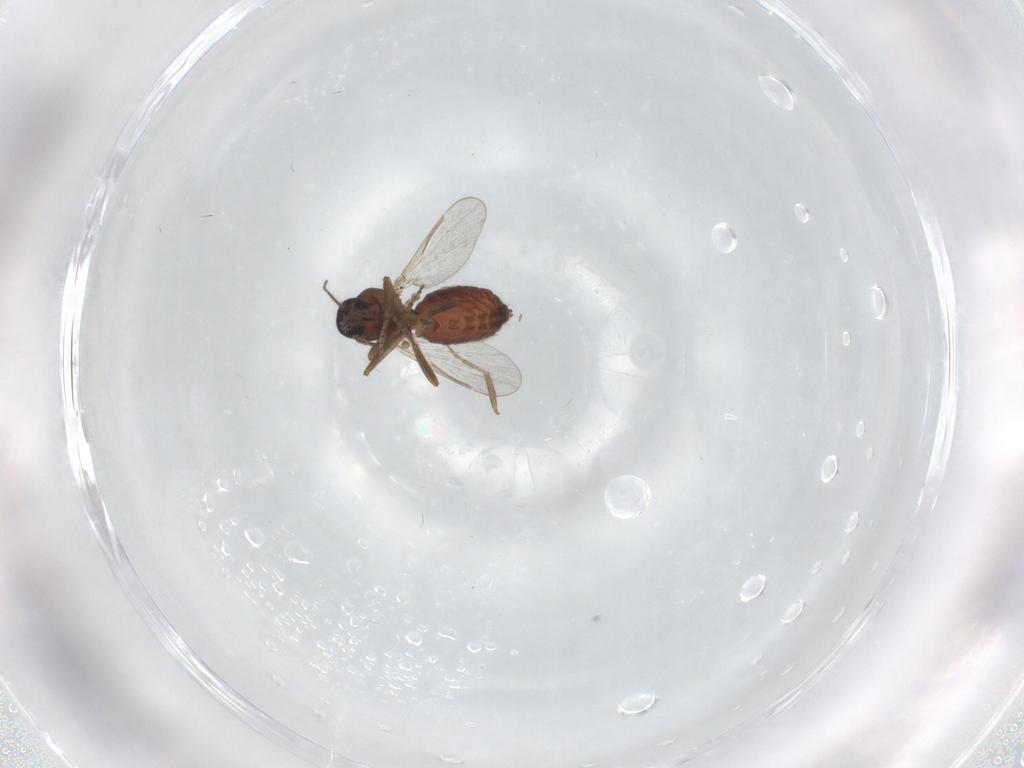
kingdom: Animalia
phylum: Arthropoda
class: Insecta
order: Diptera
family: Ceratopogonidae
